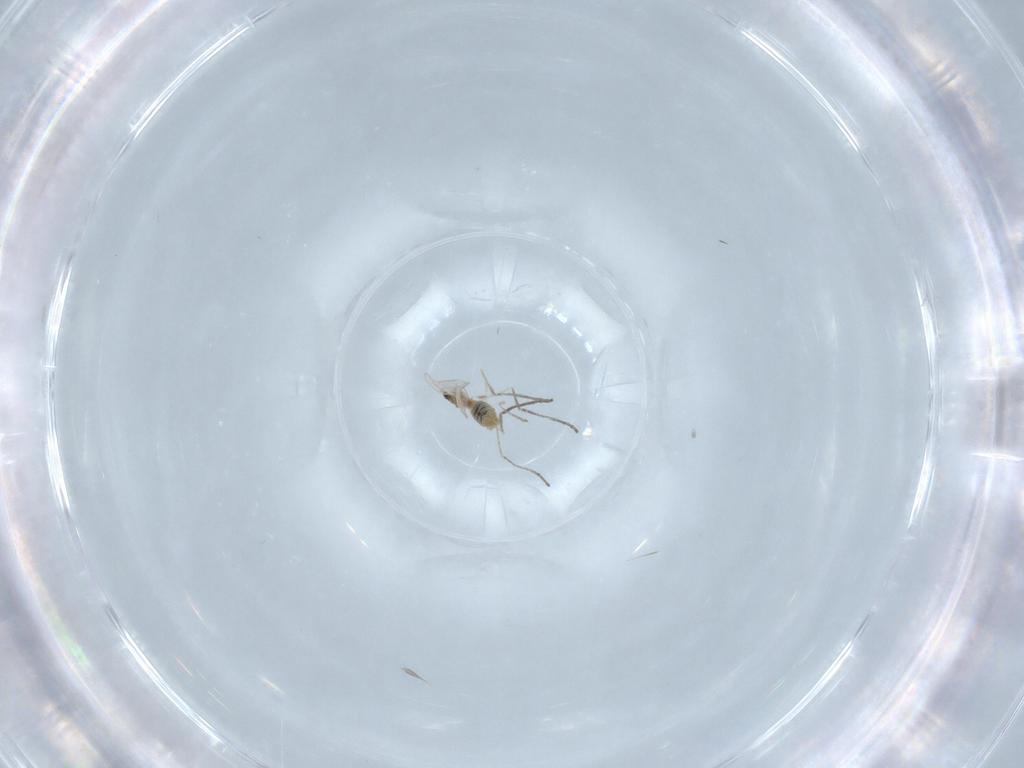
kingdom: Animalia
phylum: Arthropoda
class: Insecta
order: Diptera
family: Cecidomyiidae
